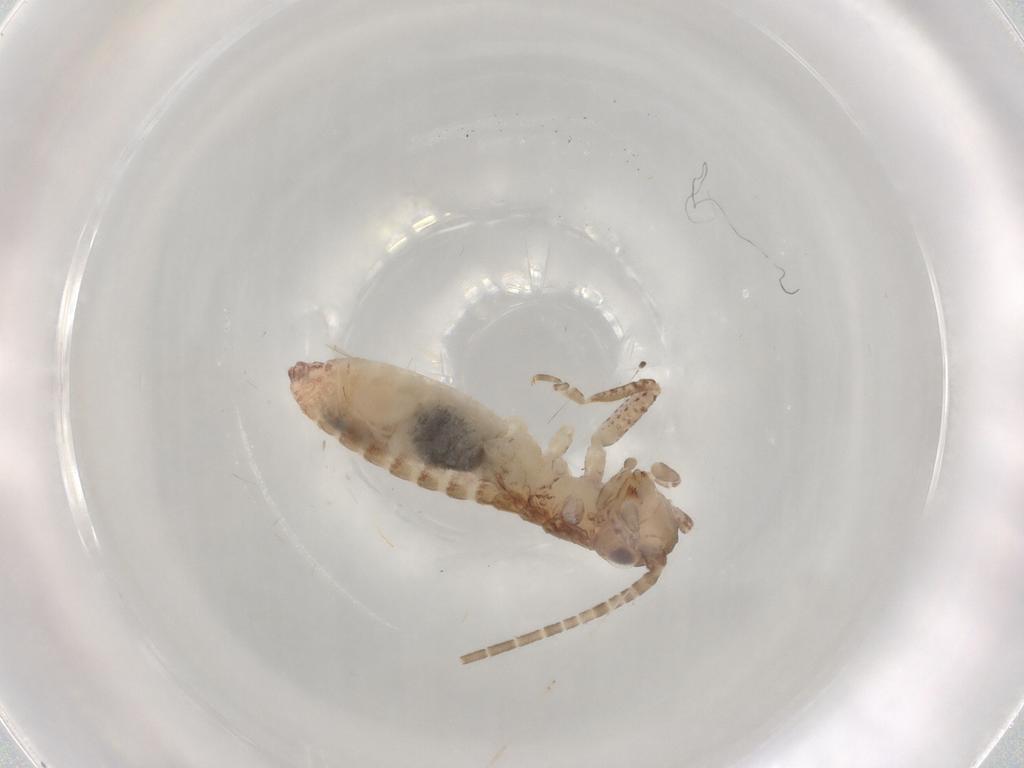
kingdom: Animalia
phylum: Arthropoda
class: Insecta
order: Orthoptera
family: Gryllidae
